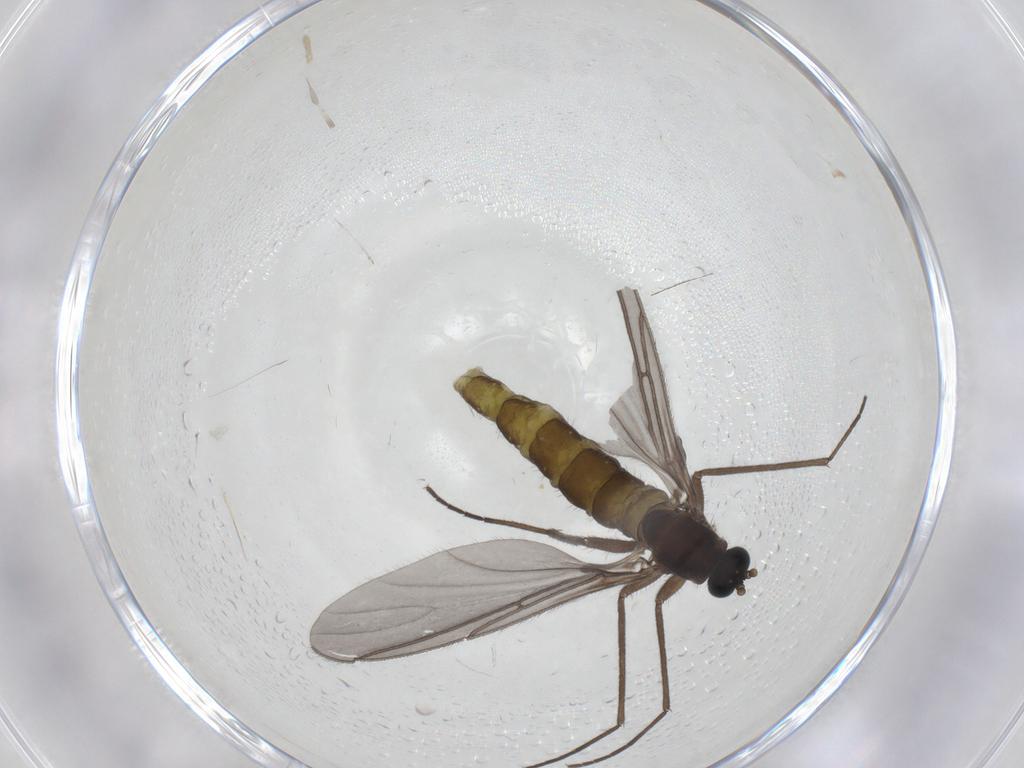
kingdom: Animalia
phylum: Arthropoda
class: Insecta
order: Diptera
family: Sciaridae
